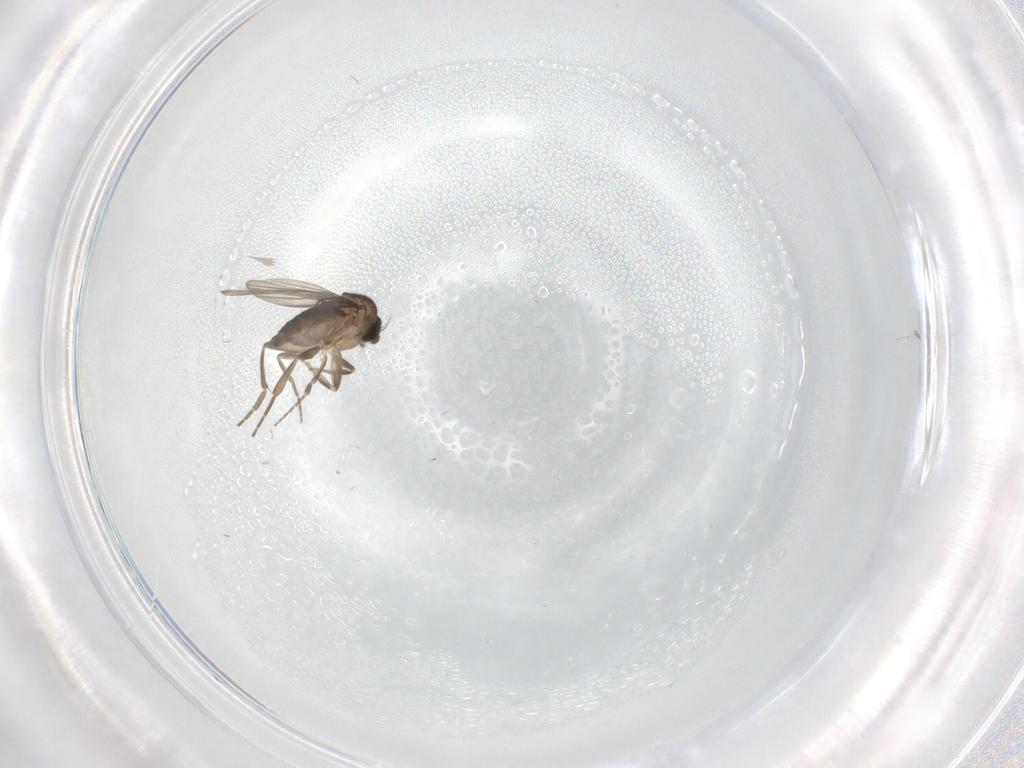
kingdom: Animalia
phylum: Arthropoda
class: Insecta
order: Diptera
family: Phoridae
